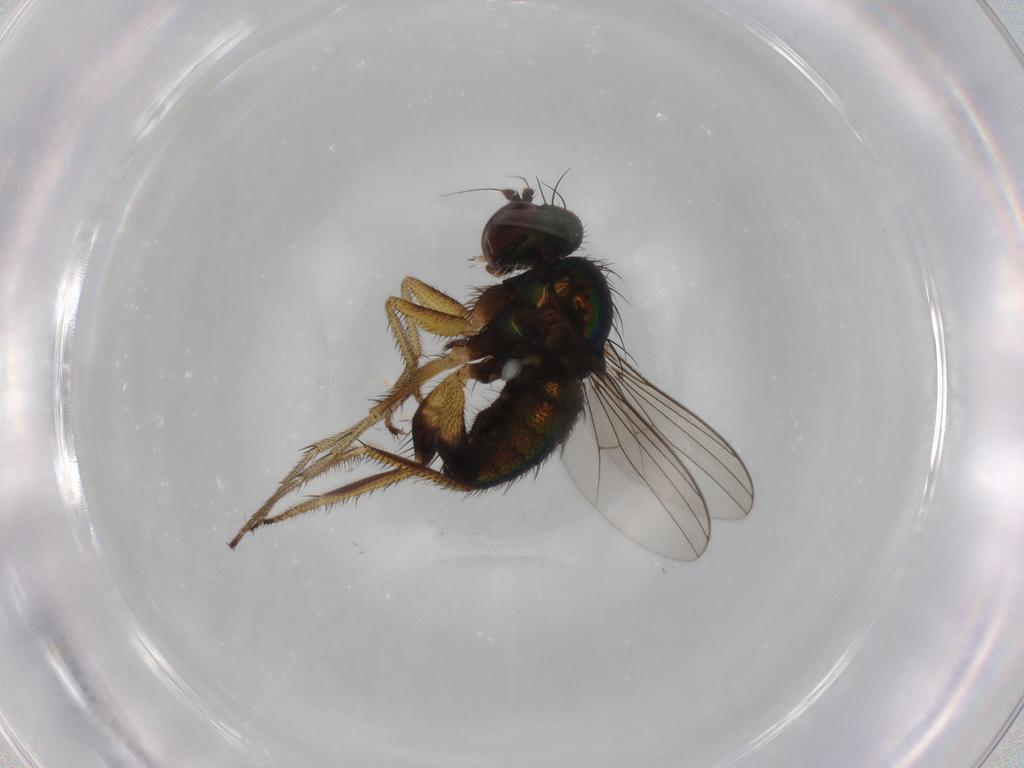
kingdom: Animalia
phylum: Arthropoda
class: Insecta
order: Diptera
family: Dolichopodidae
